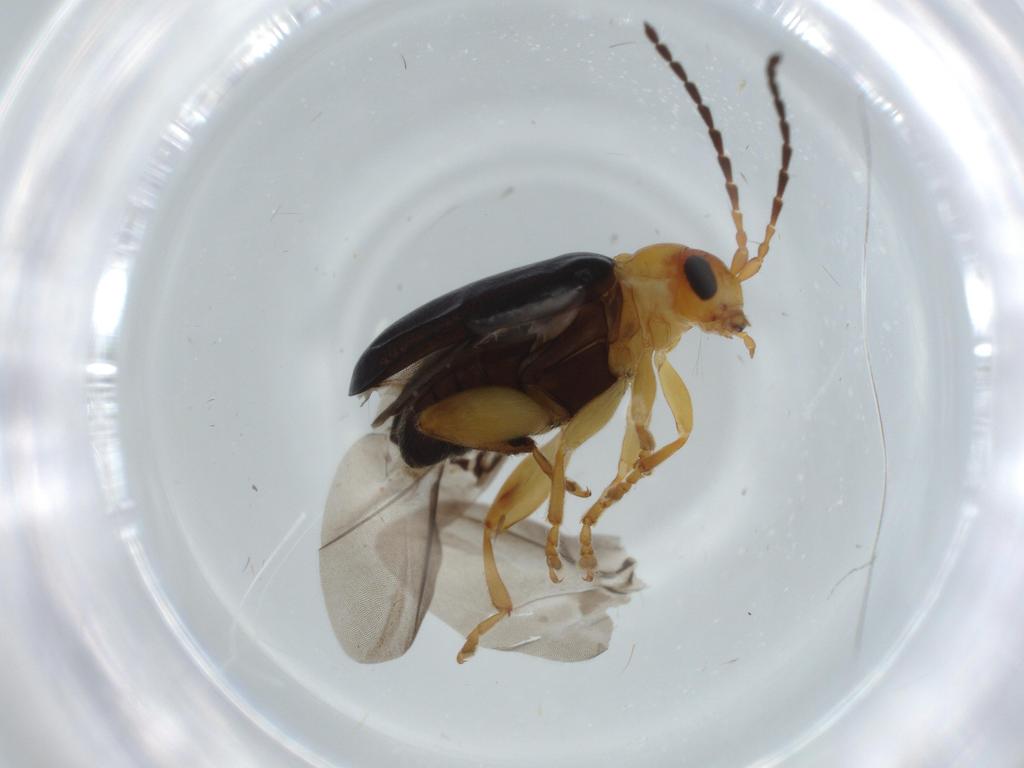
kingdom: Animalia
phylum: Arthropoda
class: Insecta
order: Coleoptera
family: Chrysomelidae
